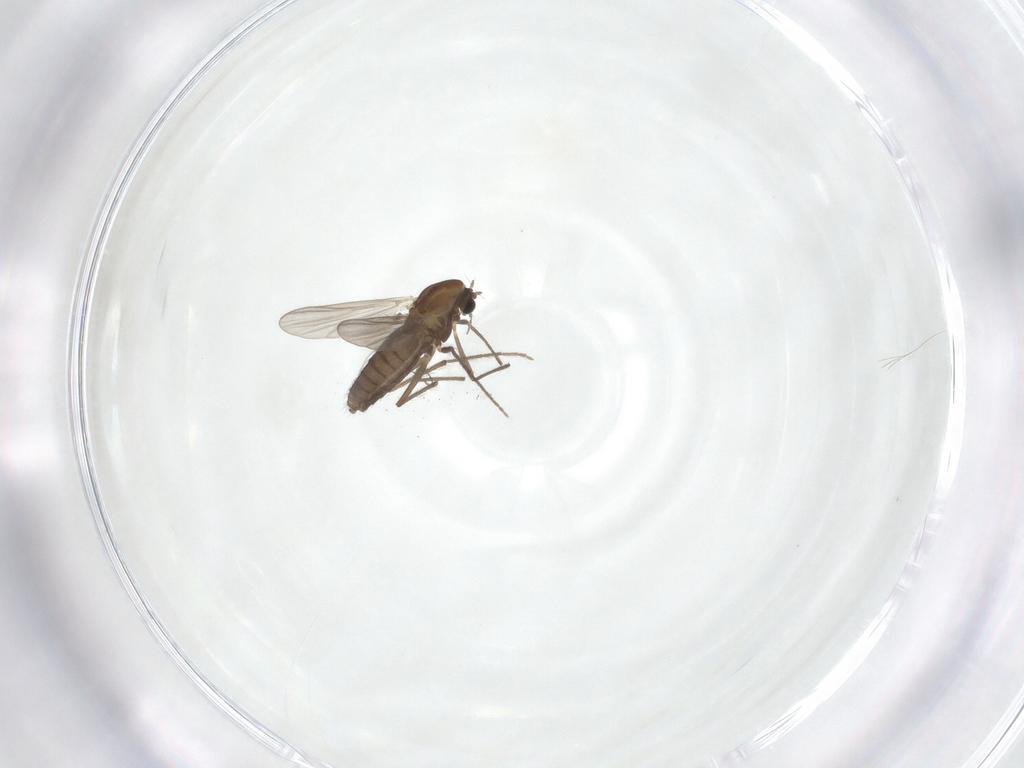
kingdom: Animalia
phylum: Arthropoda
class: Insecta
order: Diptera
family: Chironomidae
